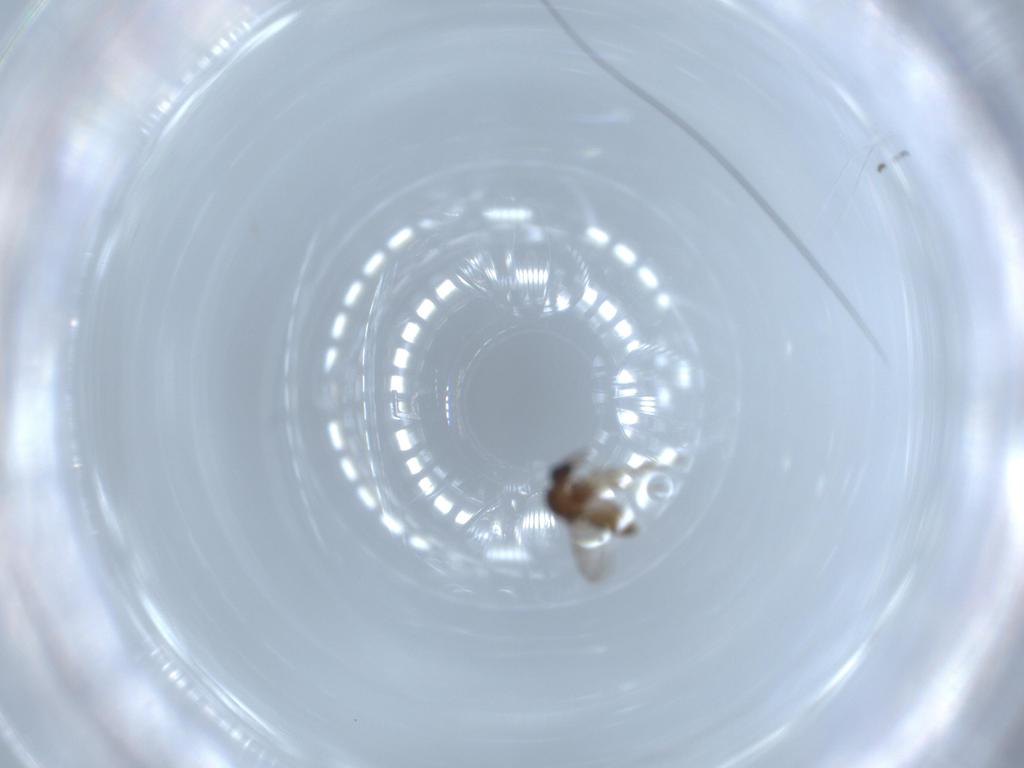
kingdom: Animalia
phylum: Arthropoda
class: Insecta
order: Diptera
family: Ceratopogonidae
